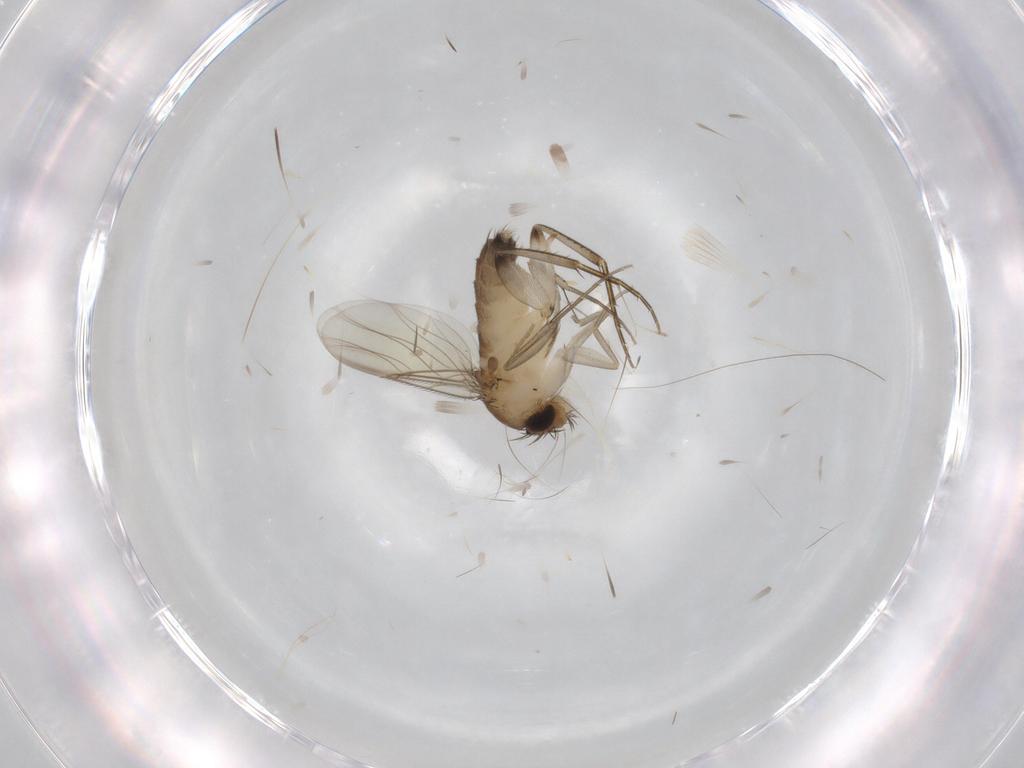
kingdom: Animalia
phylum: Arthropoda
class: Insecta
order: Diptera
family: Phoridae
